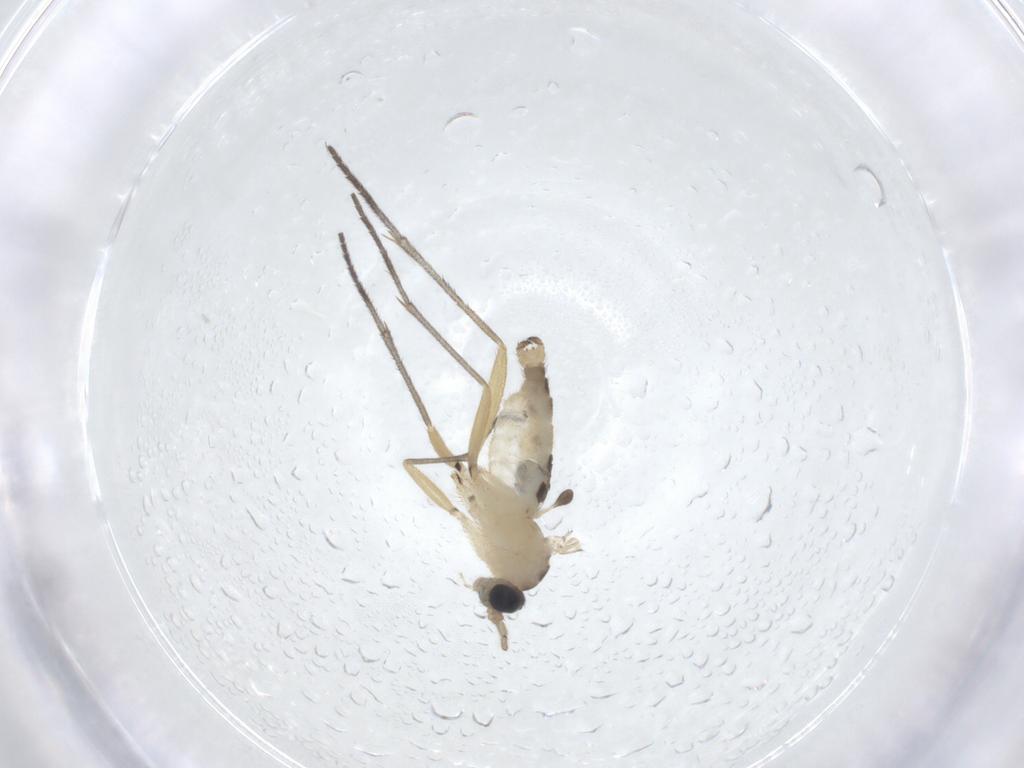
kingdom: Animalia
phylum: Arthropoda
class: Insecta
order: Diptera
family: Sciaridae
